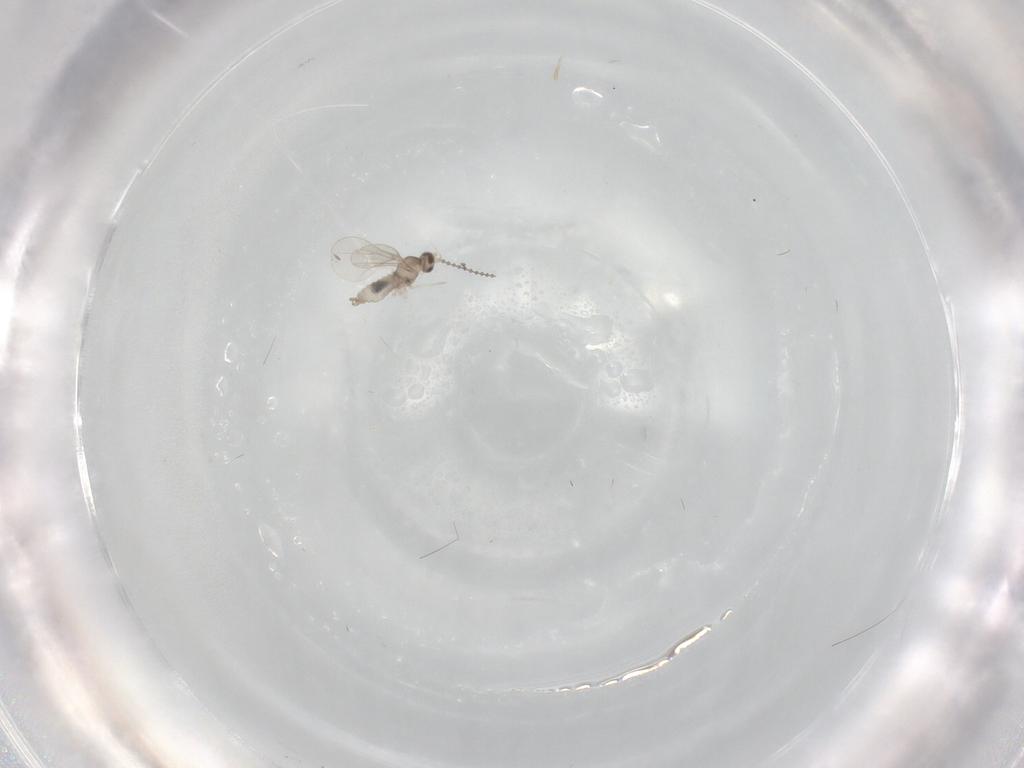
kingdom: Animalia
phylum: Arthropoda
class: Insecta
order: Diptera
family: Cecidomyiidae
